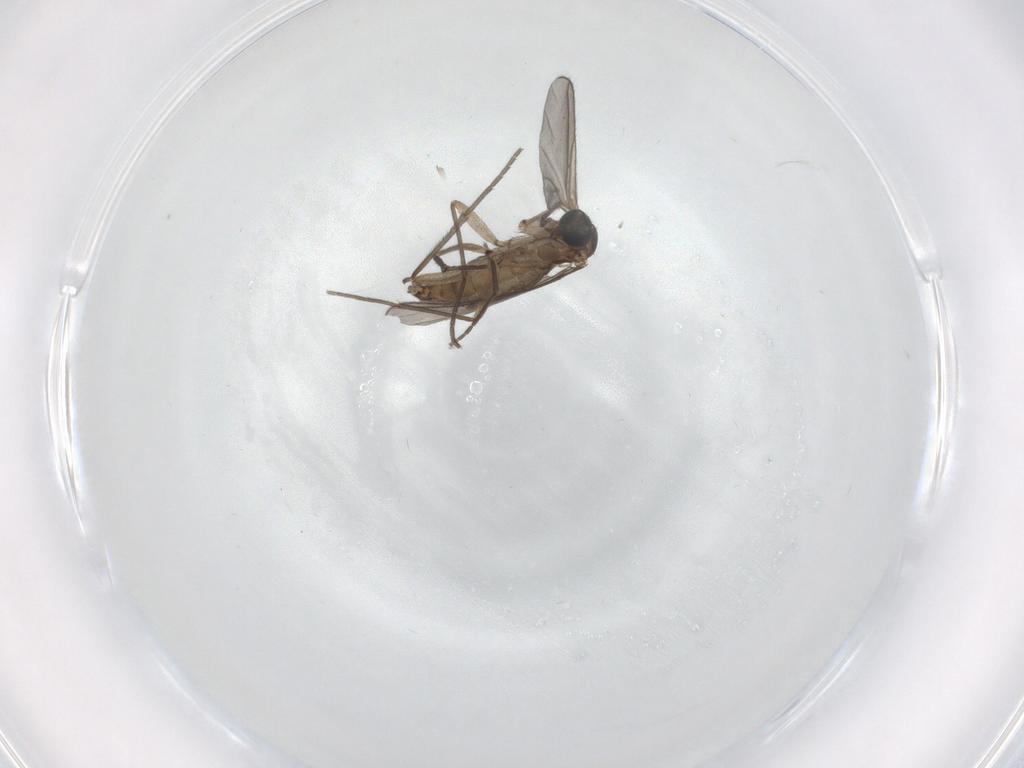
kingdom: Animalia
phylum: Arthropoda
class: Insecta
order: Diptera
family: Sciaridae
